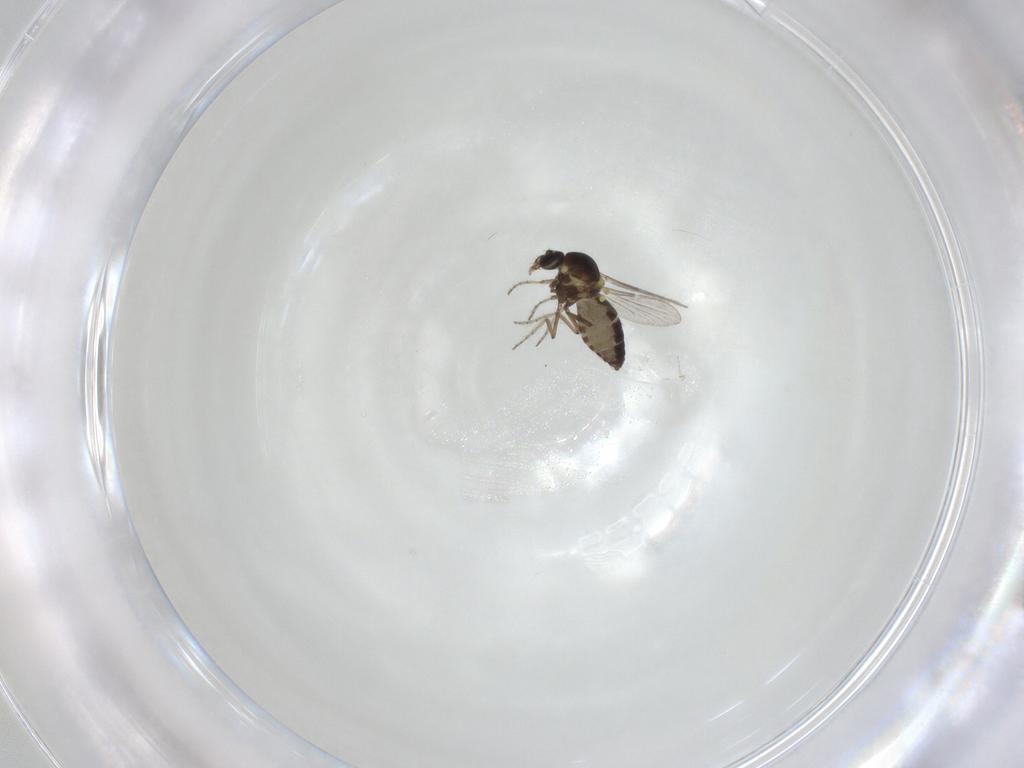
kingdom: Animalia
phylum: Arthropoda
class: Insecta
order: Diptera
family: Ceratopogonidae
